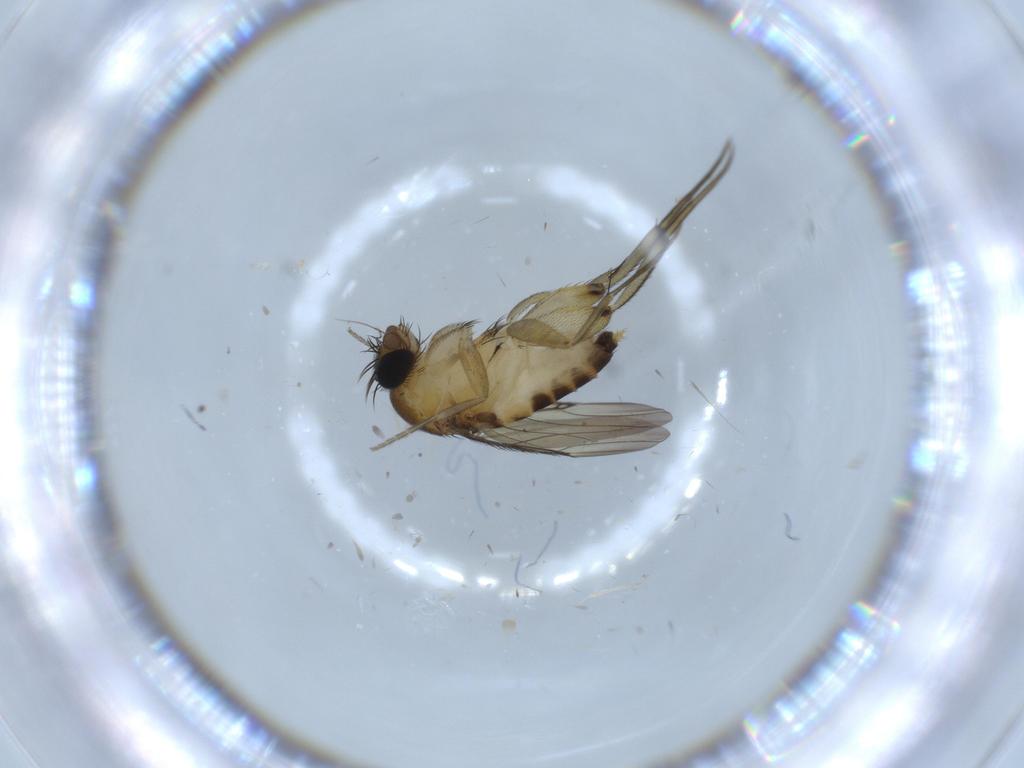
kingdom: Animalia
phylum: Arthropoda
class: Insecta
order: Diptera
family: Phoridae
